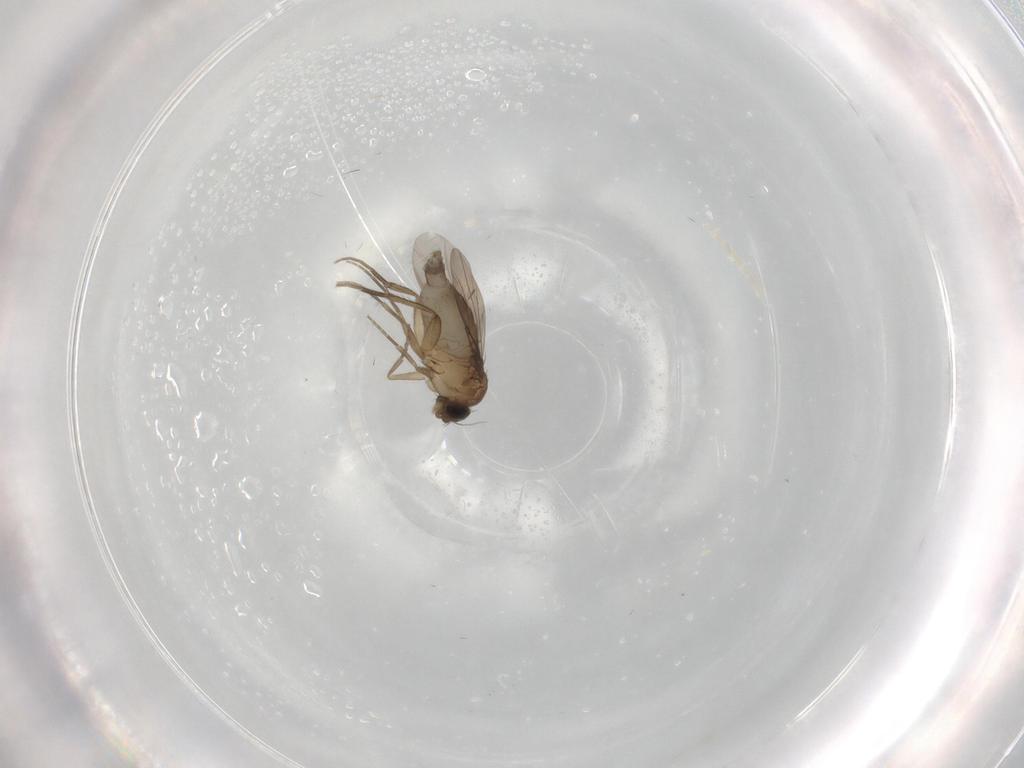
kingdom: Animalia
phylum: Arthropoda
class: Insecta
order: Diptera
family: Phoridae
